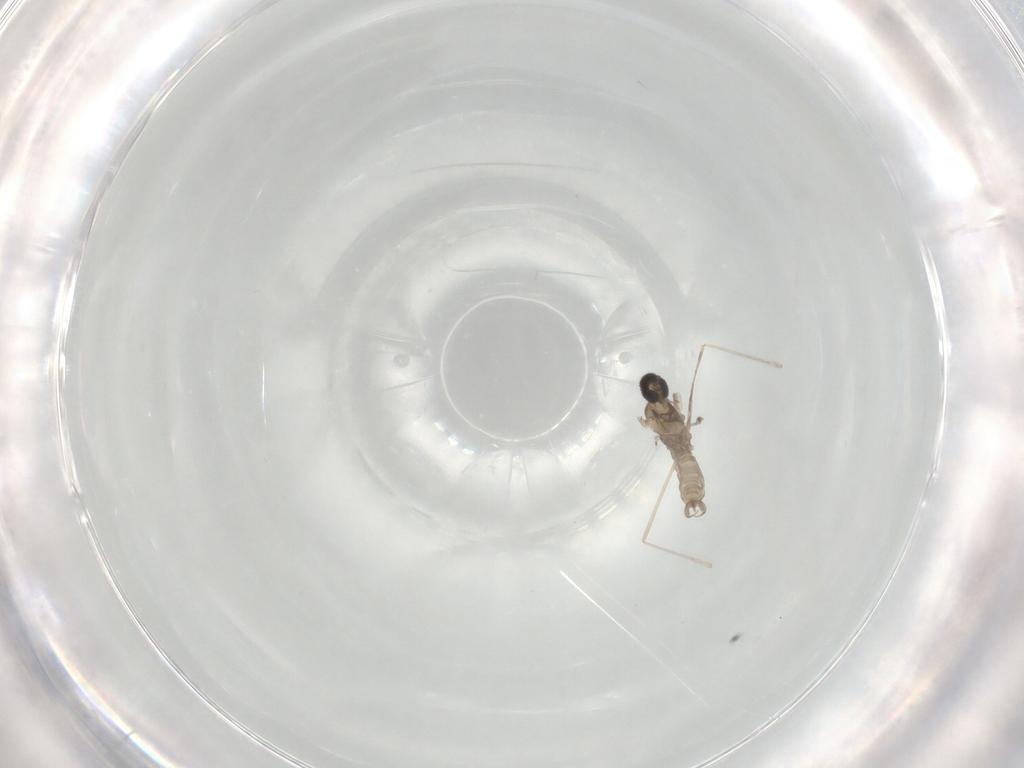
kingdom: Animalia
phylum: Arthropoda
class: Insecta
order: Diptera
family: Cecidomyiidae
